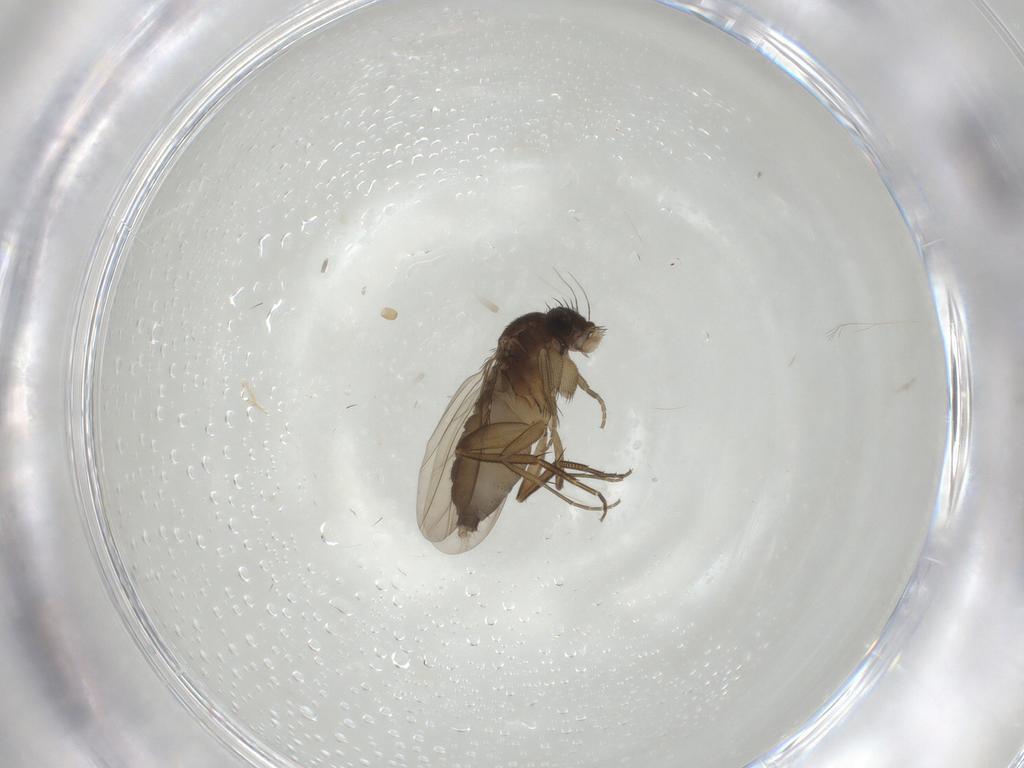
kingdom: Animalia
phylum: Arthropoda
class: Insecta
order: Diptera
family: Phoridae
